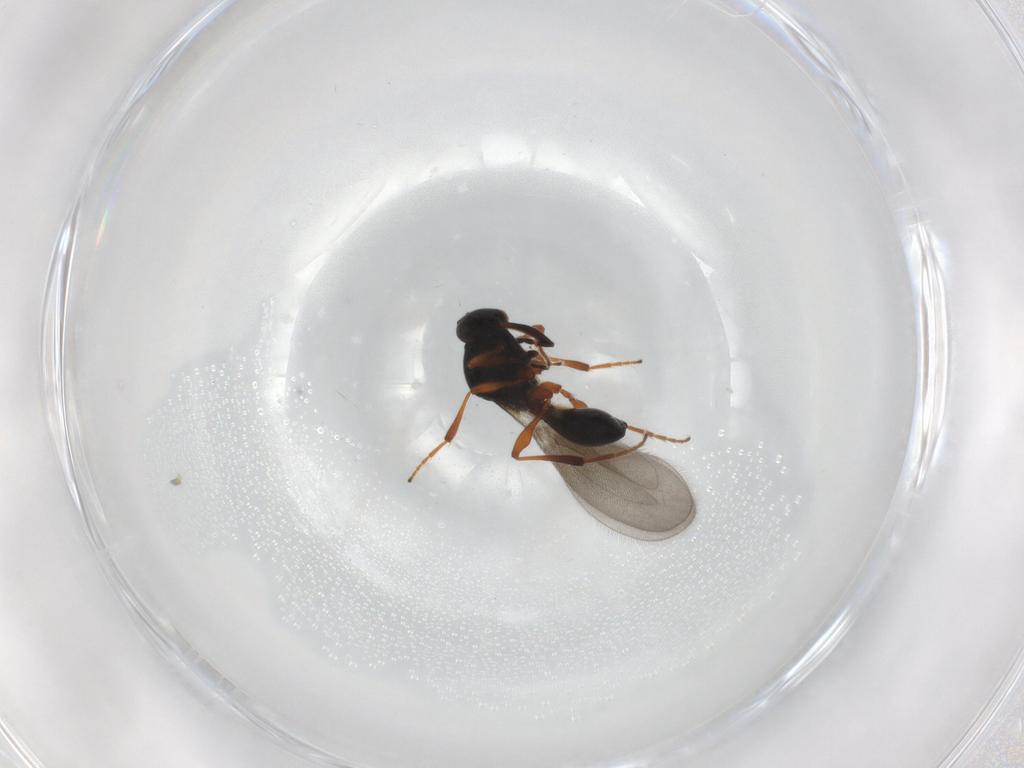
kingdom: Animalia
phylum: Arthropoda
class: Insecta
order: Hymenoptera
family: Platygastridae
